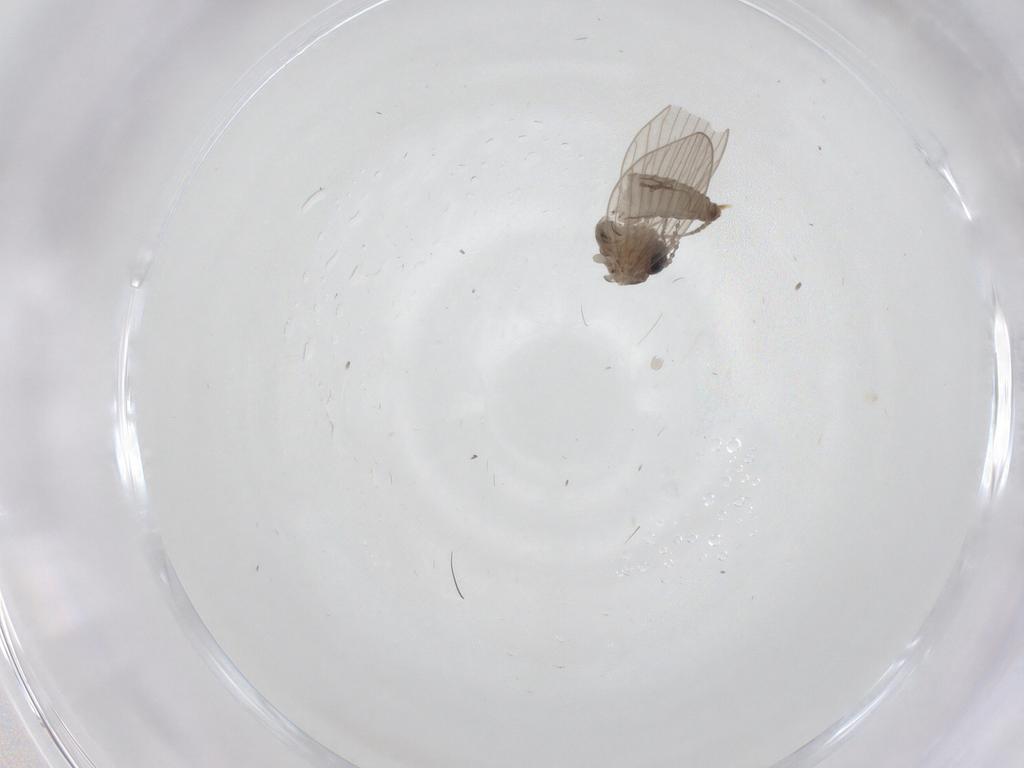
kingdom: Animalia
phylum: Arthropoda
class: Insecta
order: Diptera
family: Psychodidae
